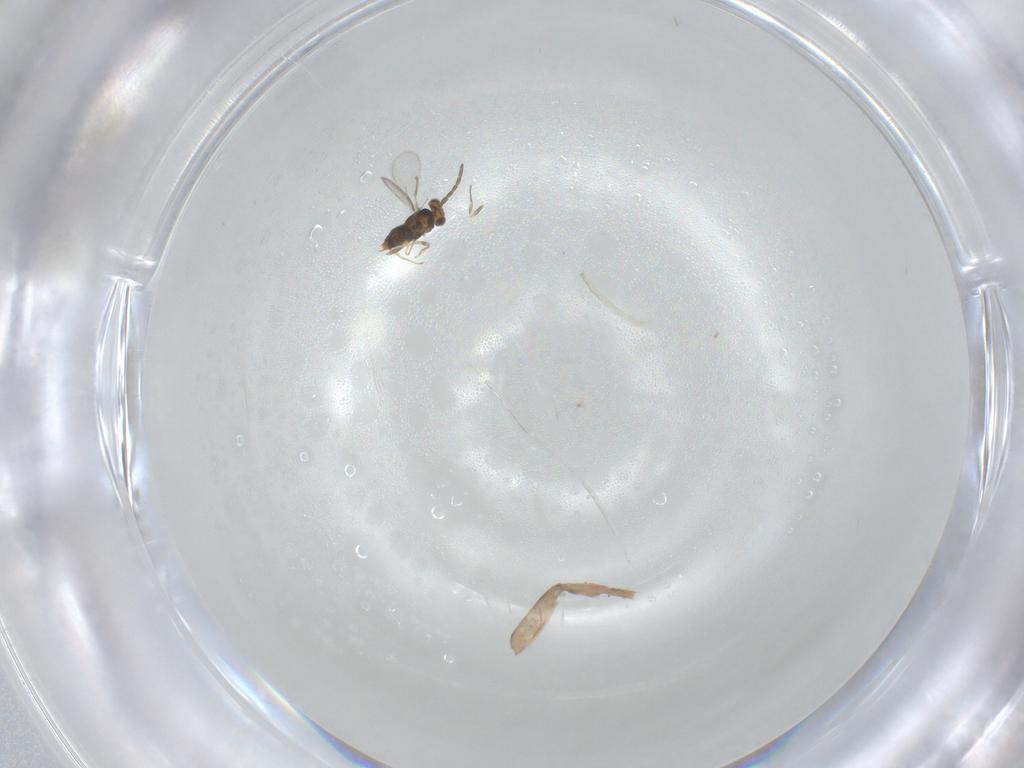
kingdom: Animalia
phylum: Arthropoda
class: Insecta
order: Hymenoptera
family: Aphelinidae
